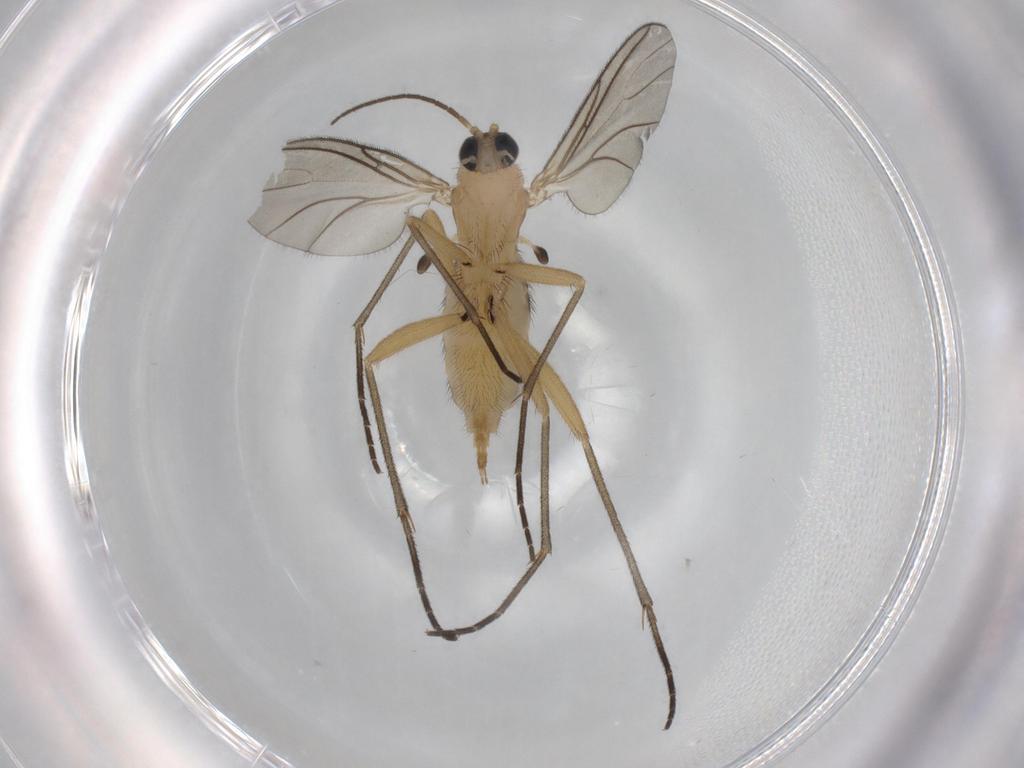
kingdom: Animalia
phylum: Arthropoda
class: Insecta
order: Diptera
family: Sciaridae
